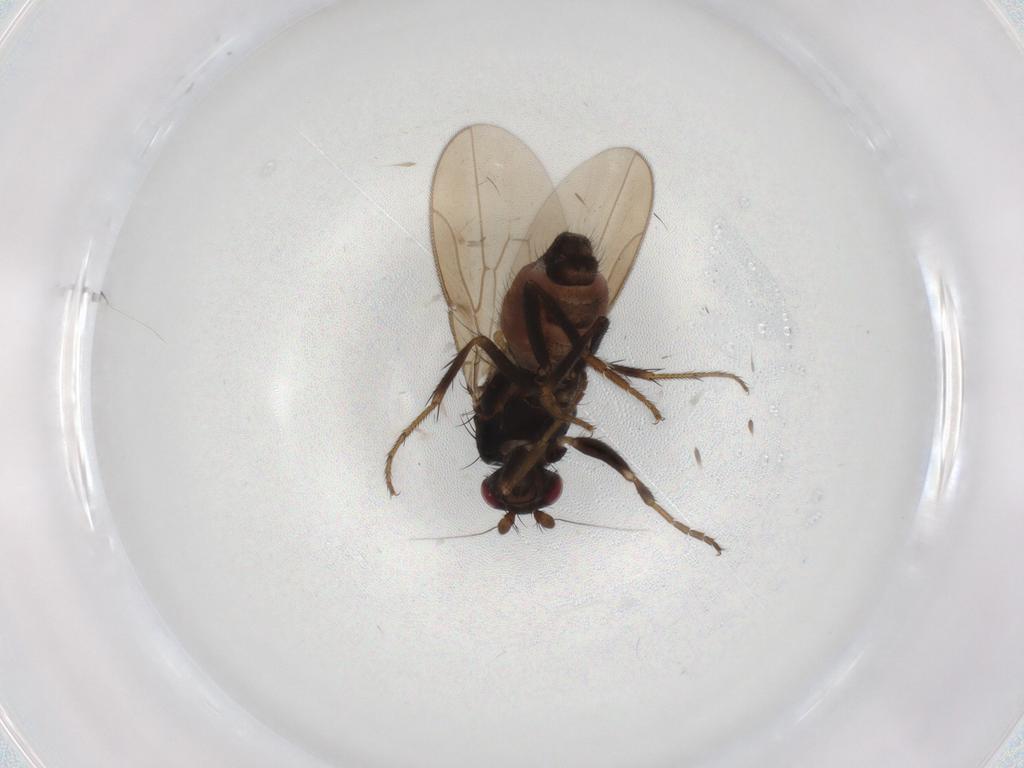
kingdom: Animalia
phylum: Arthropoda
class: Insecta
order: Diptera
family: Sphaeroceridae
